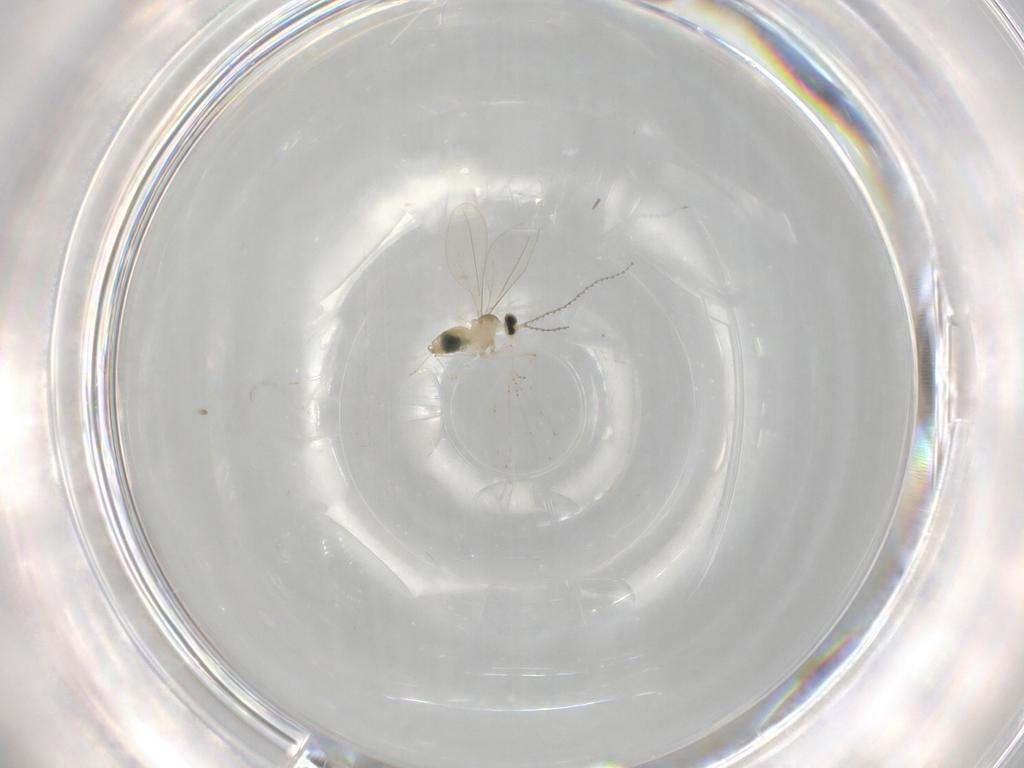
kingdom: Animalia
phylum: Arthropoda
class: Insecta
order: Diptera
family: Cecidomyiidae
